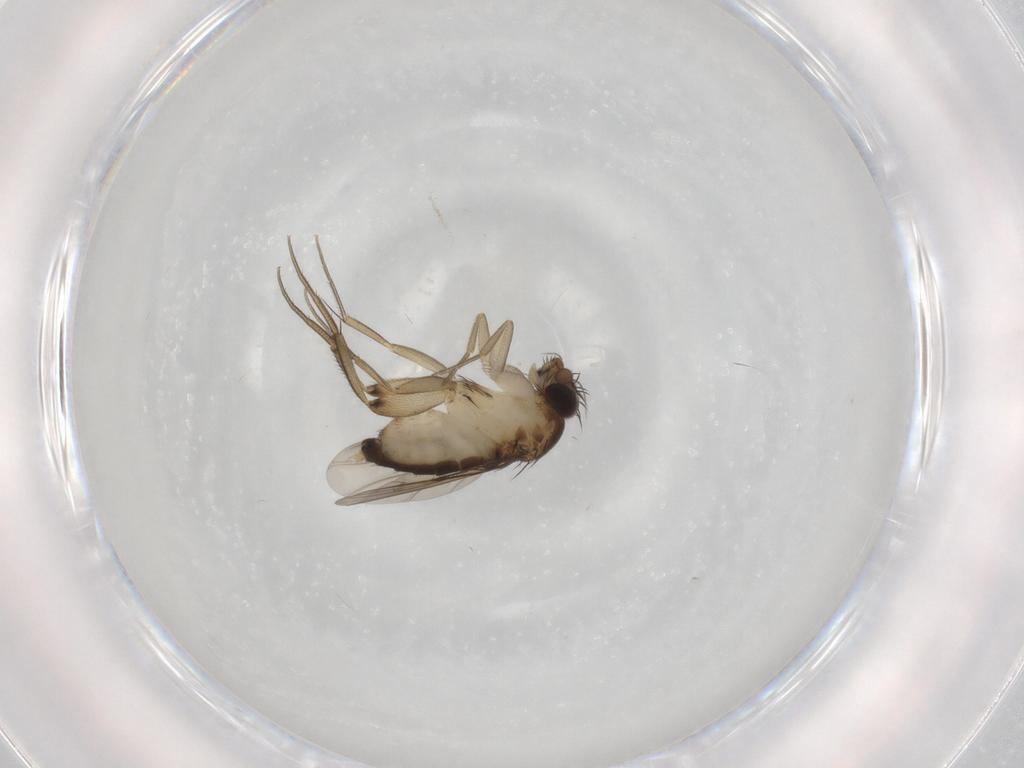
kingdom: Animalia
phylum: Arthropoda
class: Insecta
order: Diptera
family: Phoridae
